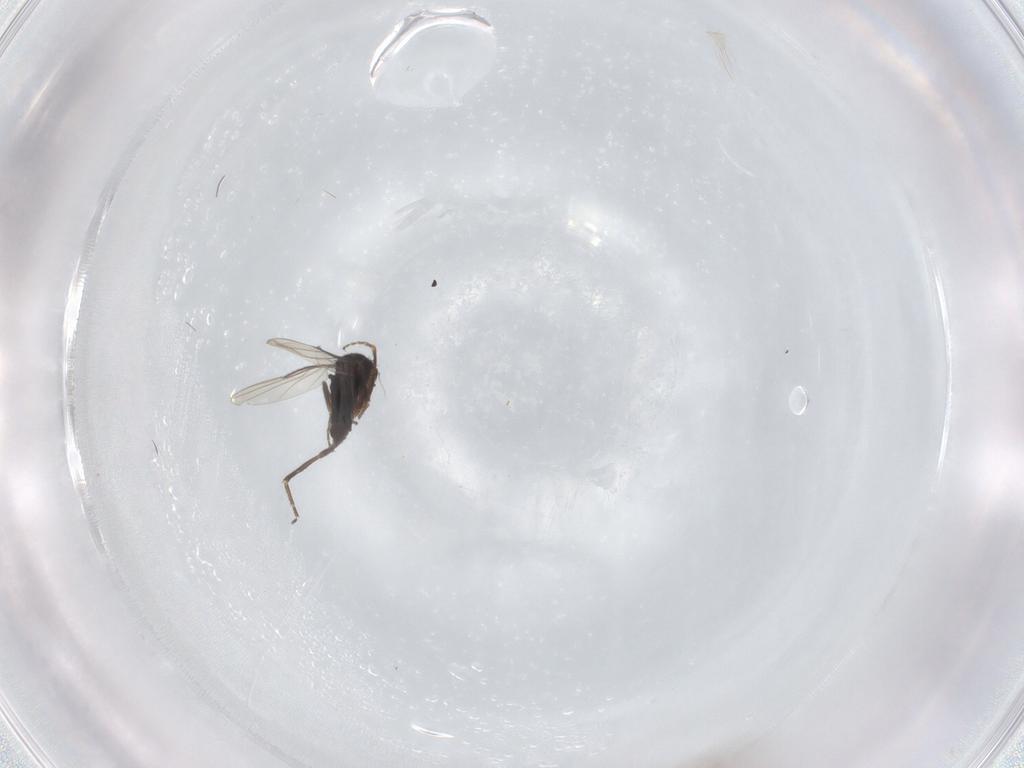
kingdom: Animalia
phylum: Arthropoda
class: Insecta
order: Diptera
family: Phoridae
